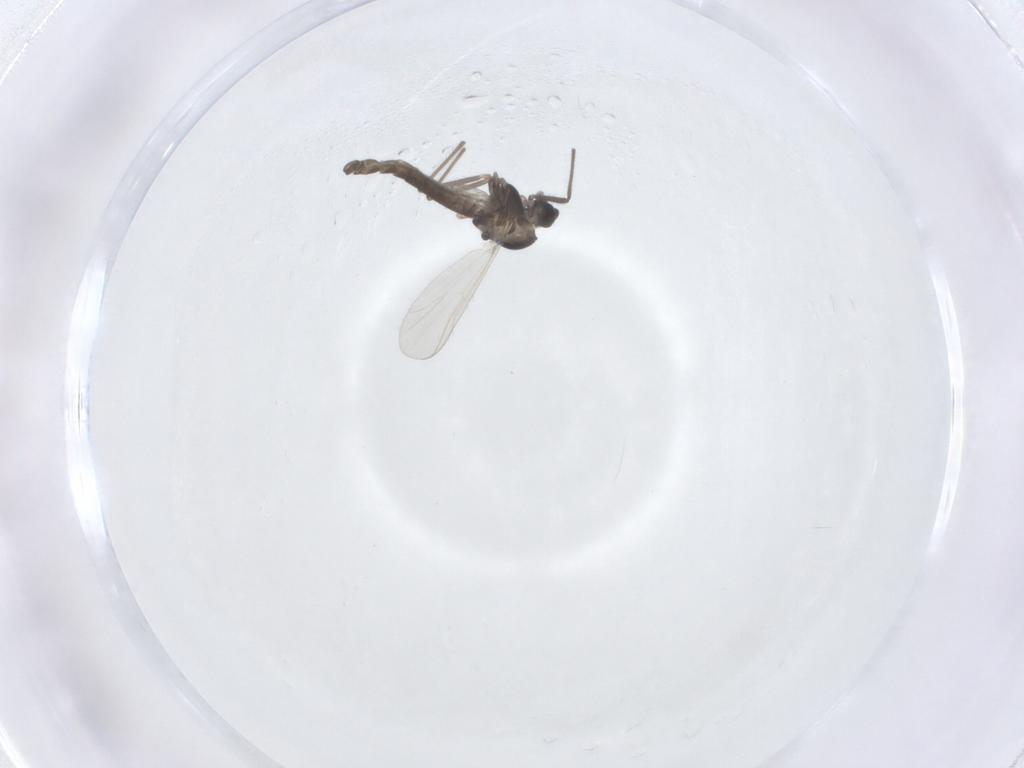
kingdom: Animalia
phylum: Arthropoda
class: Insecta
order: Diptera
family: Chironomidae
